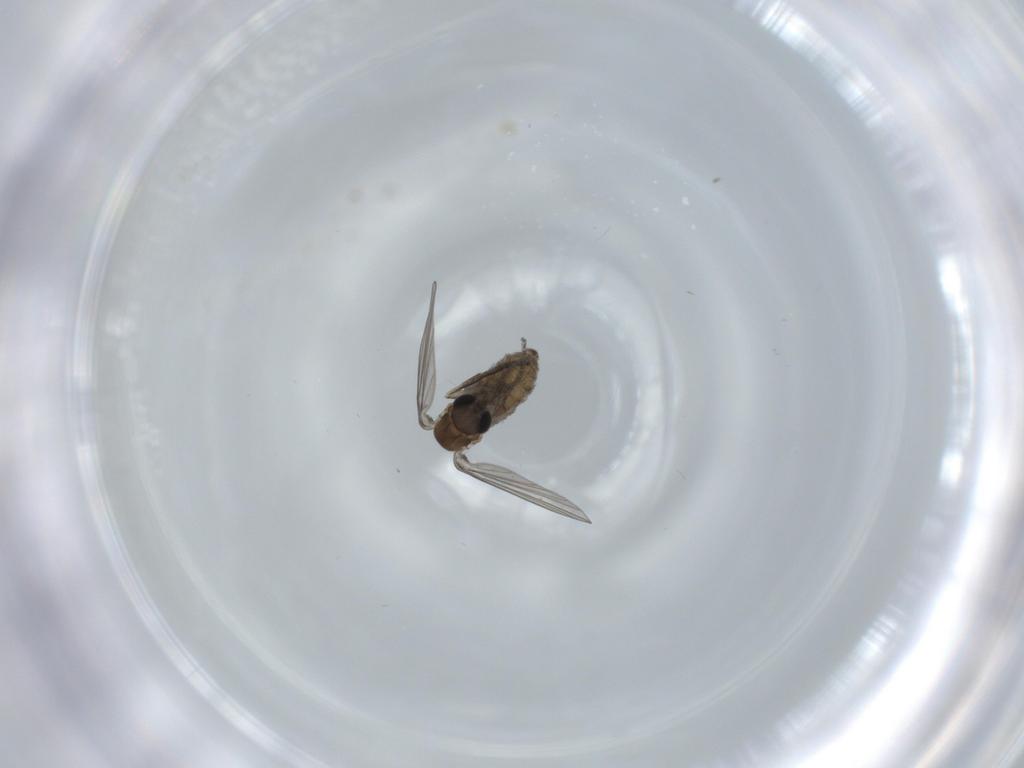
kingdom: Animalia
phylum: Arthropoda
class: Insecta
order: Diptera
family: Psychodidae
